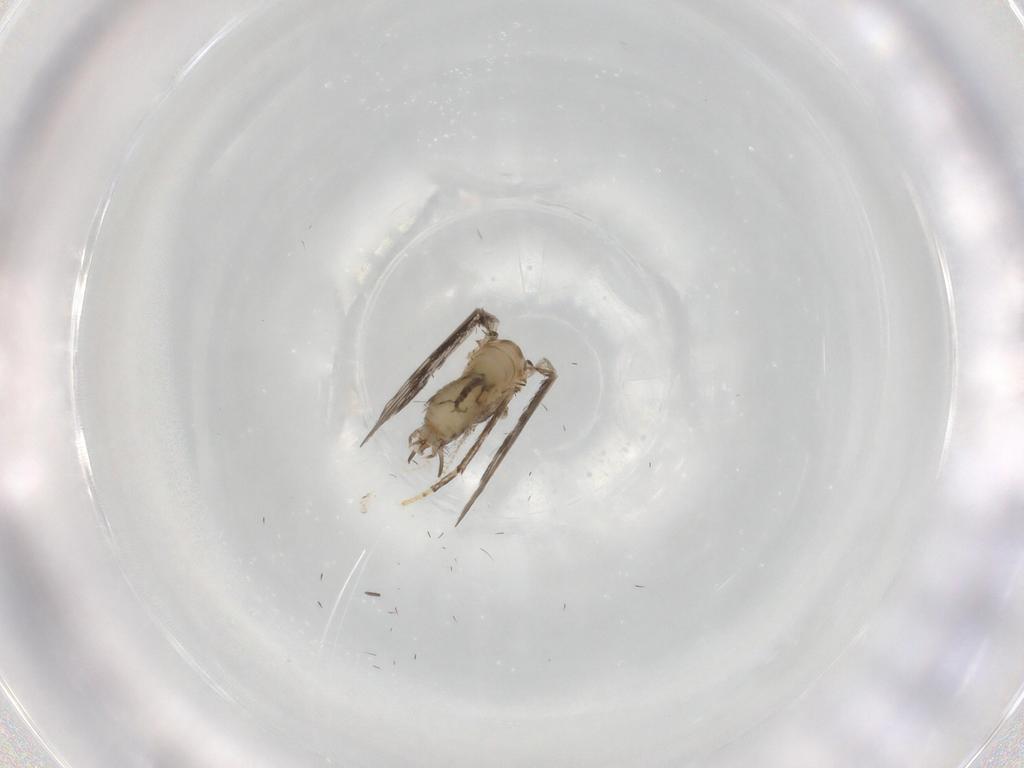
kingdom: Animalia
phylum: Arthropoda
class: Insecta
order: Diptera
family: Psychodidae
